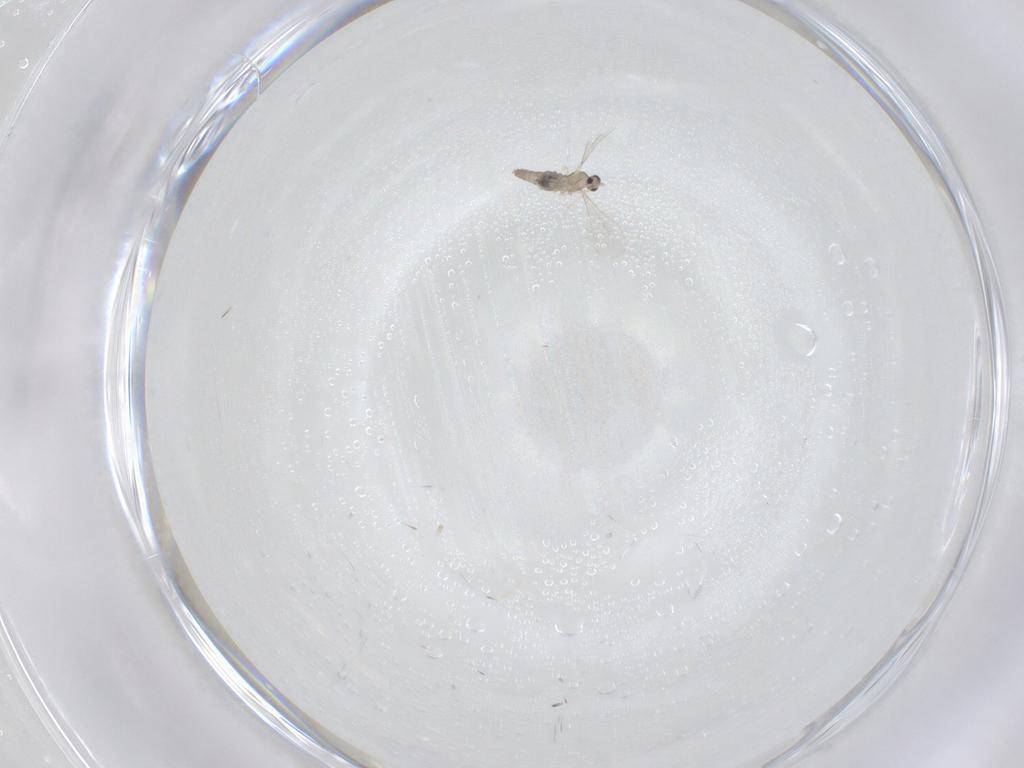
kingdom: Animalia
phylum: Arthropoda
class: Insecta
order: Diptera
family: Cecidomyiidae
